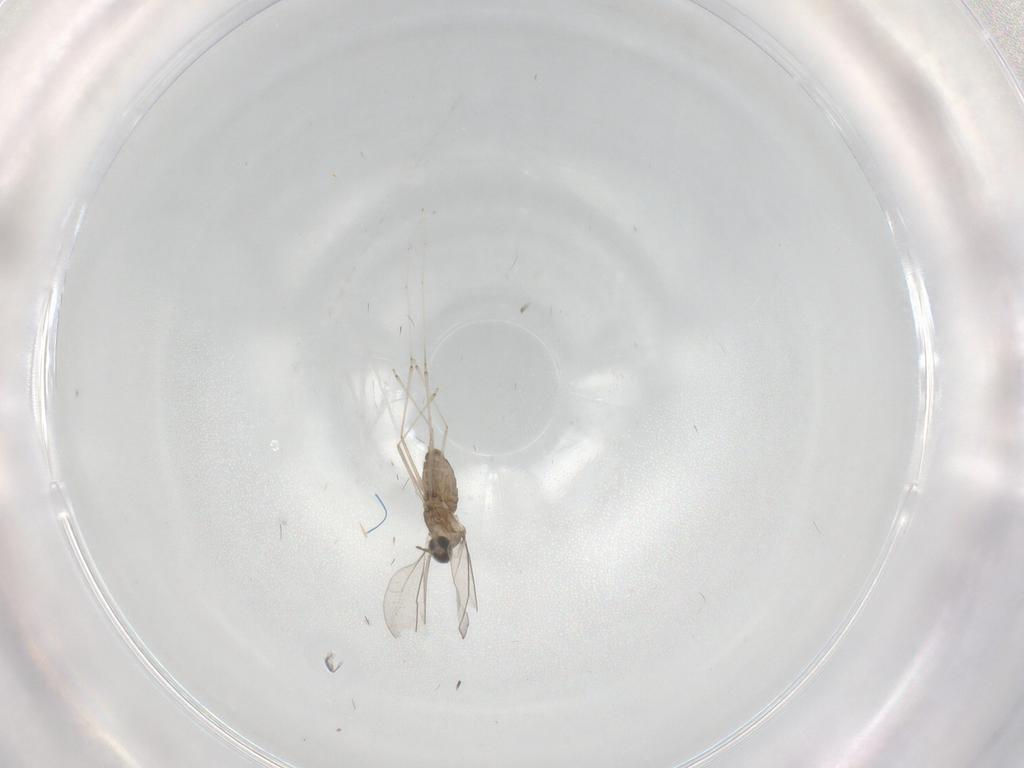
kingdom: Animalia
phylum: Arthropoda
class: Insecta
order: Diptera
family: Cecidomyiidae
